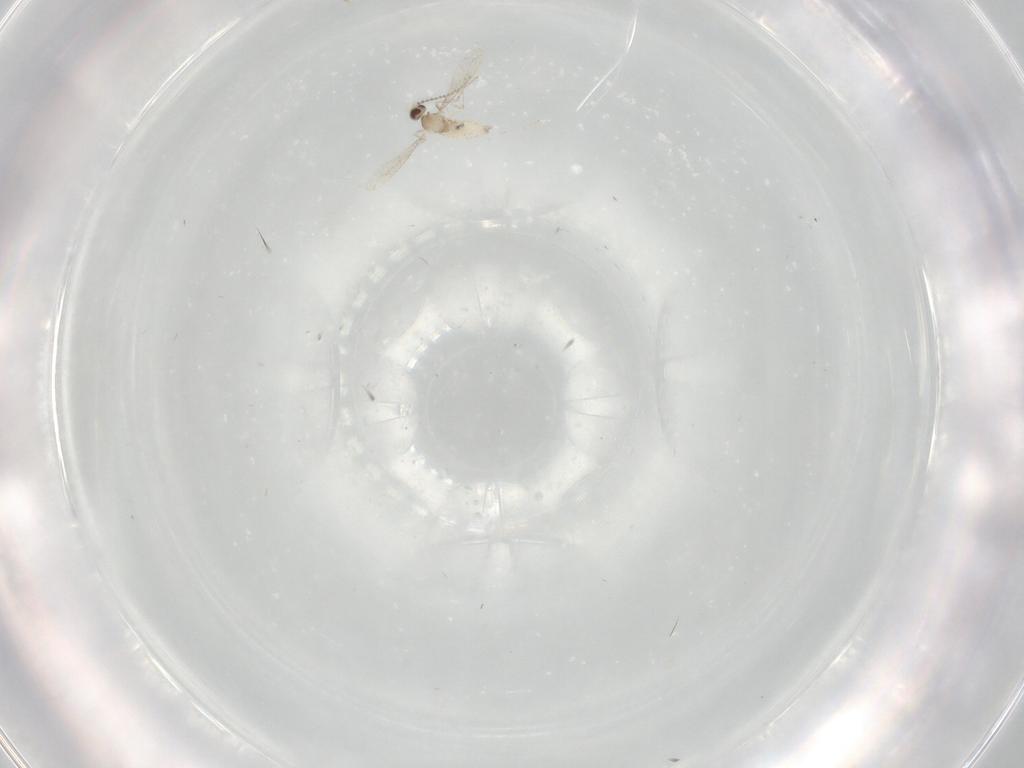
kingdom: Animalia
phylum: Arthropoda
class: Insecta
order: Diptera
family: Cecidomyiidae
